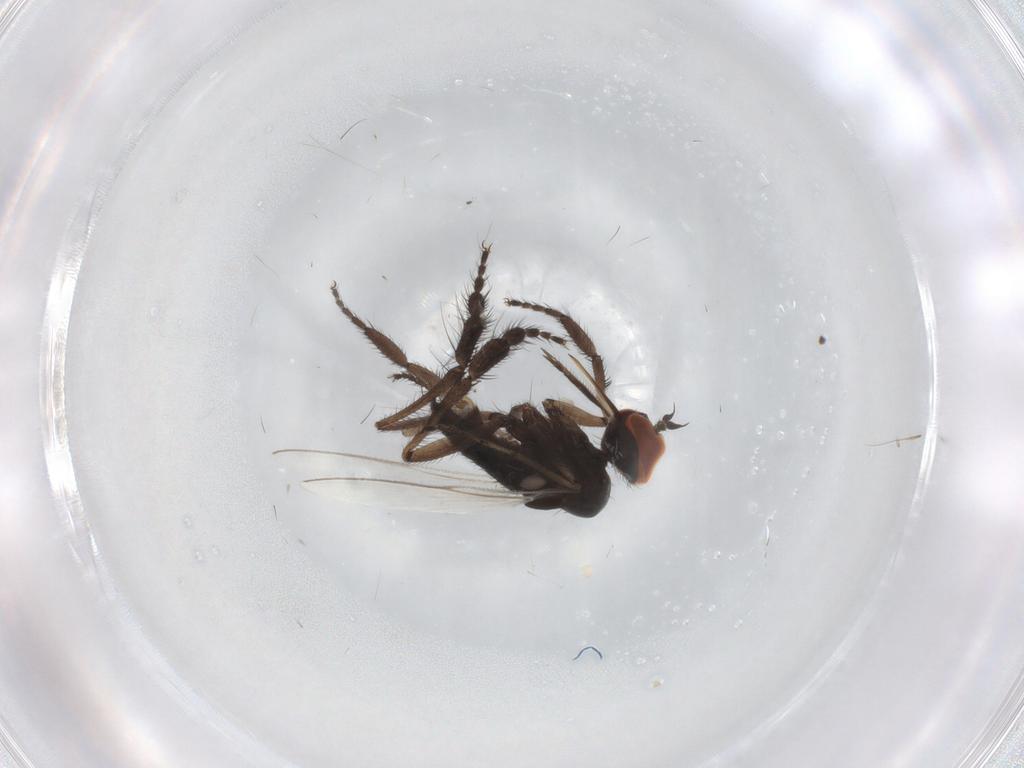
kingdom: Animalia
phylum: Arthropoda
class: Insecta
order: Diptera
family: Empididae
